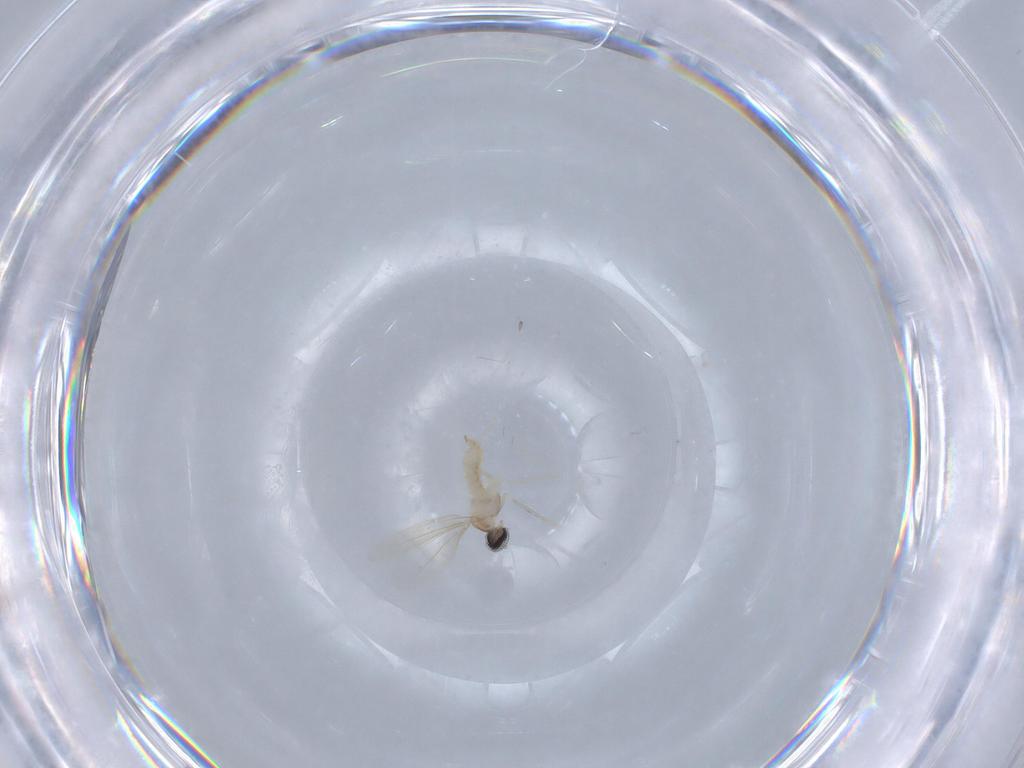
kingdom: Animalia
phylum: Arthropoda
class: Insecta
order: Diptera
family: Cecidomyiidae
